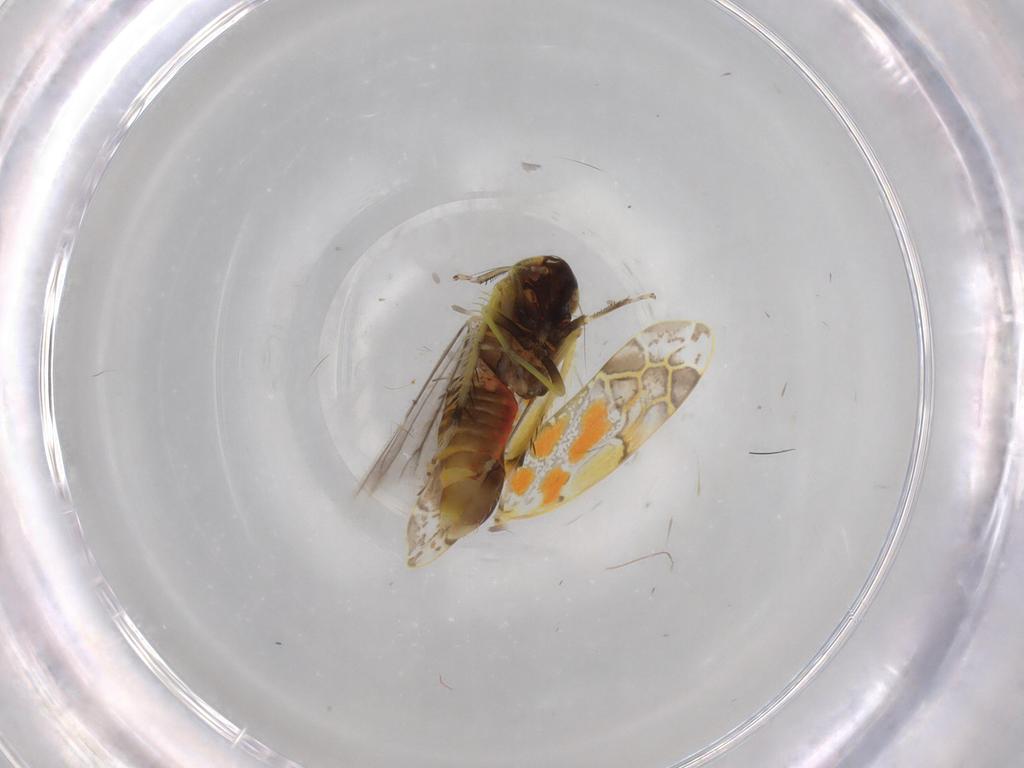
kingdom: Animalia
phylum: Arthropoda
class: Insecta
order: Hemiptera
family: Cicadellidae
